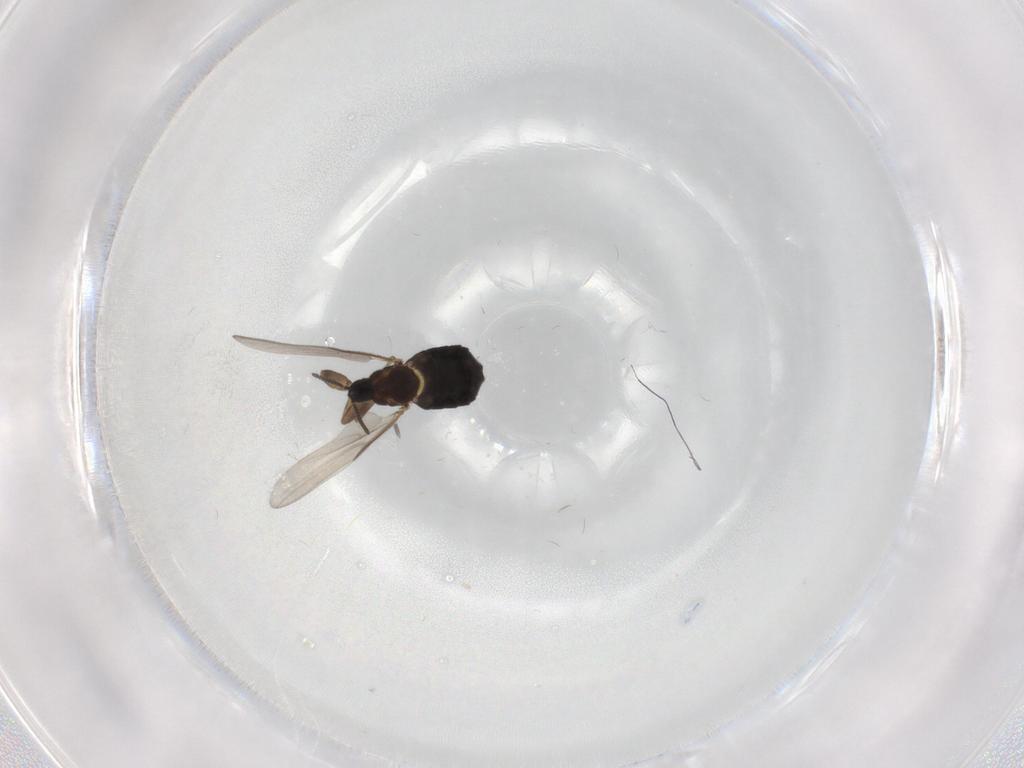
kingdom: Animalia
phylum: Arthropoda
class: Insecta
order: Diptera
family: Scatopsidae
